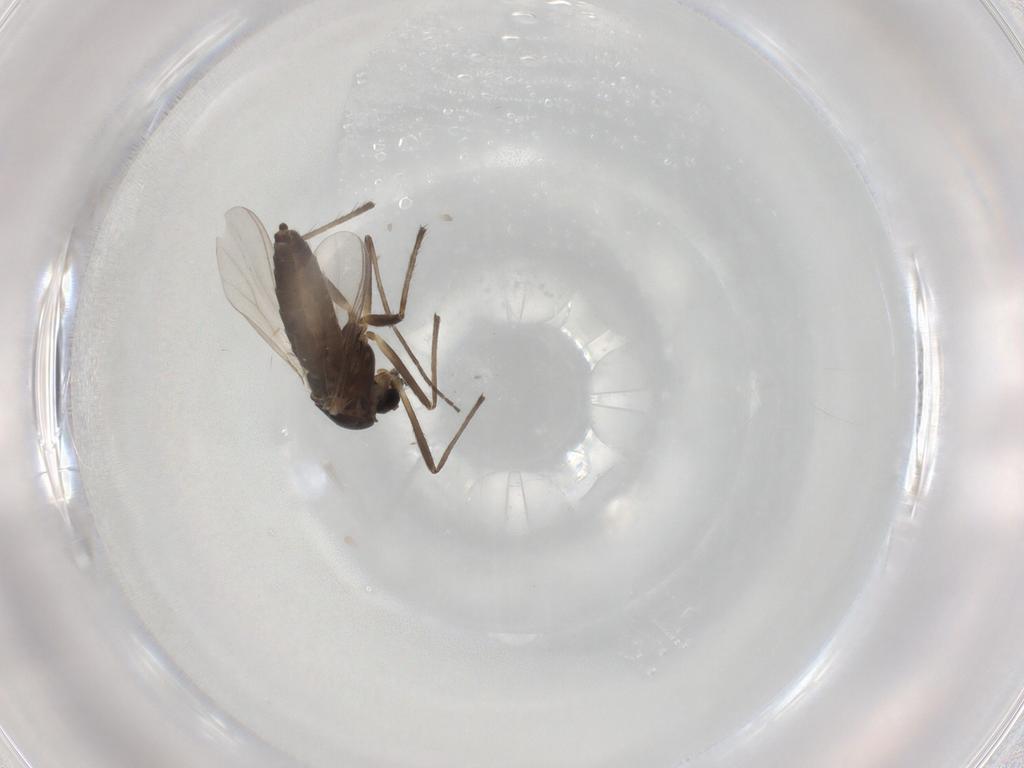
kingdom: Animalia
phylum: Arthropoda
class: Insecta
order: Diptera
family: Chironomidae
